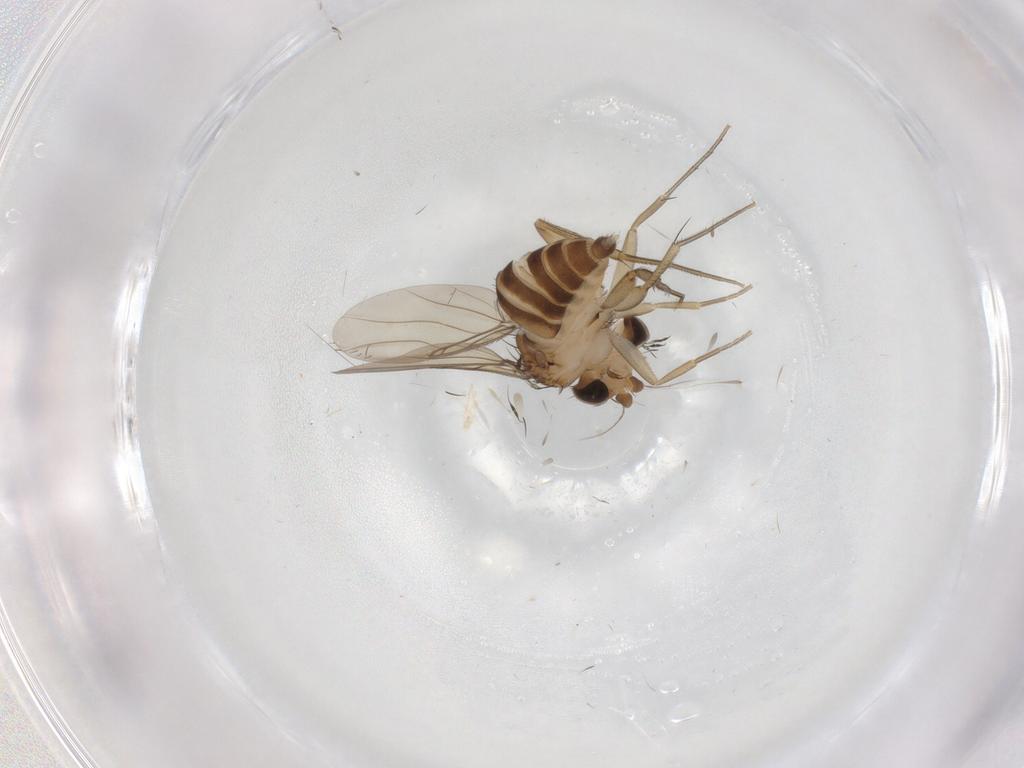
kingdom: Animalia
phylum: Arthropoda
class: Insecta
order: Diptera
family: Phoridae
